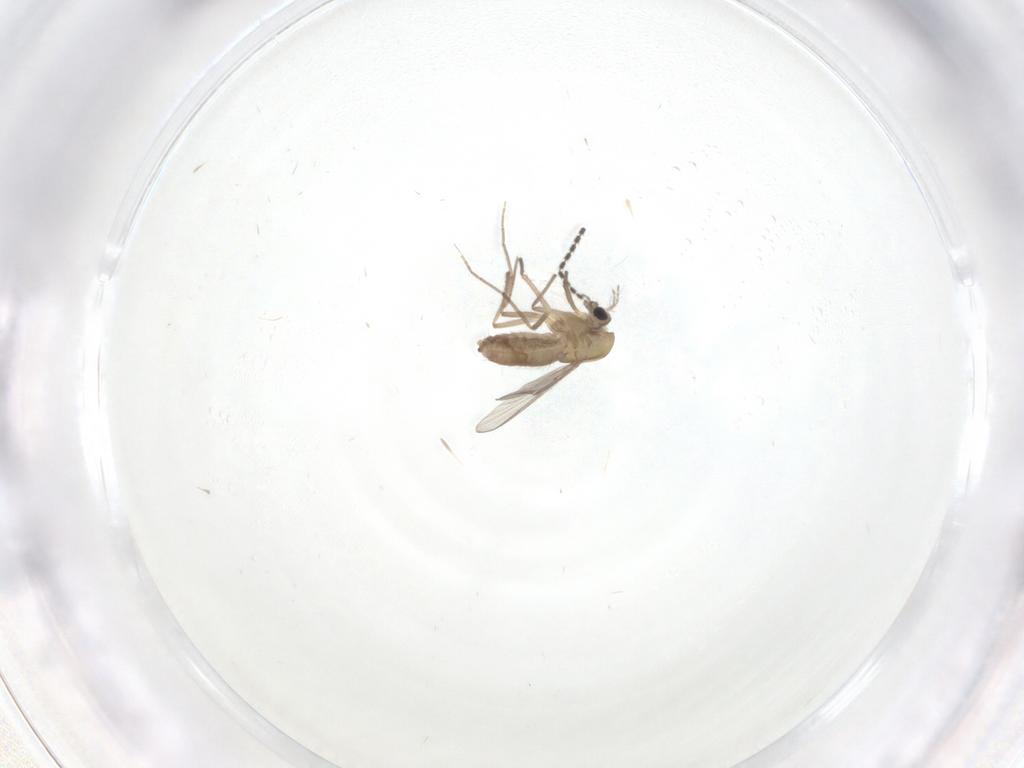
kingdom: Animalia
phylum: Arthropoda
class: Insecta
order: Diptera
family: Chironomidae
